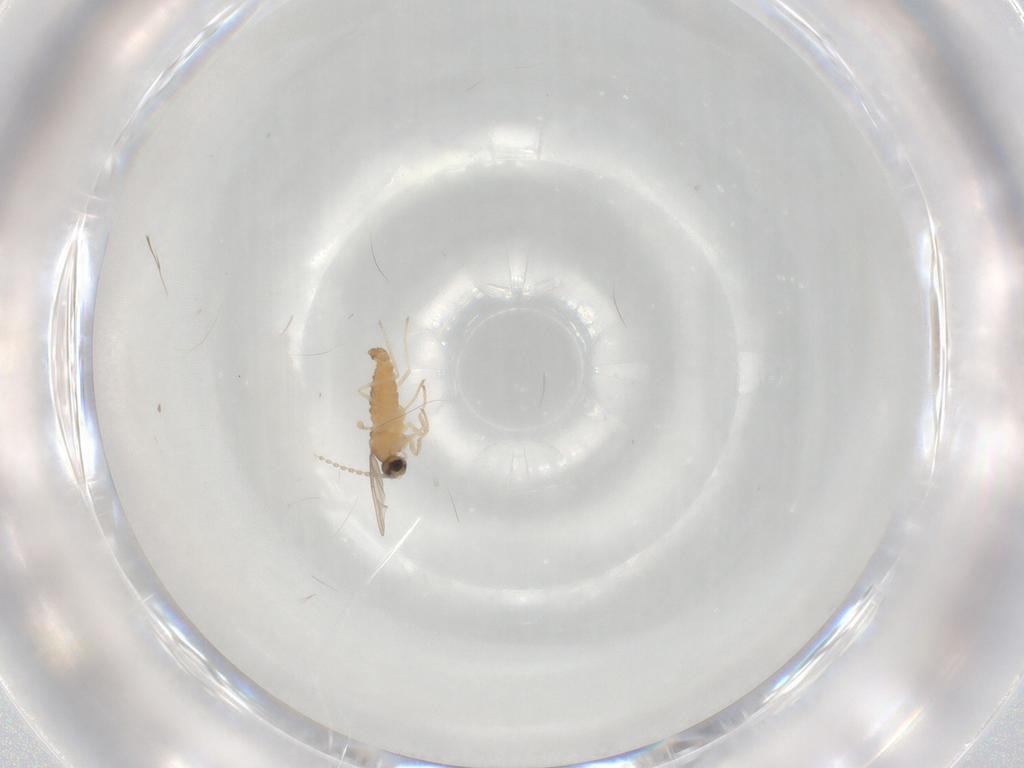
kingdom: Animalia
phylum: Arthropoda
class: Insecta
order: Diptera
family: Cecidomyiidae
